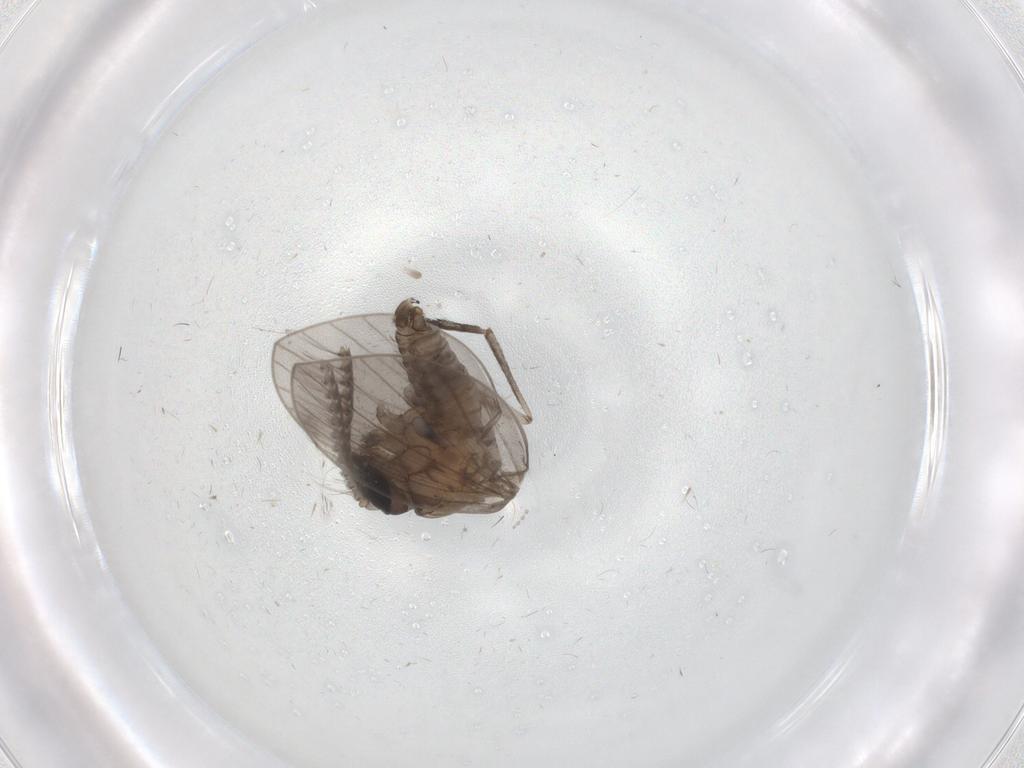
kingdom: Animalia
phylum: Arthropoda
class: Insecta
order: Diptera
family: Psychodidae
